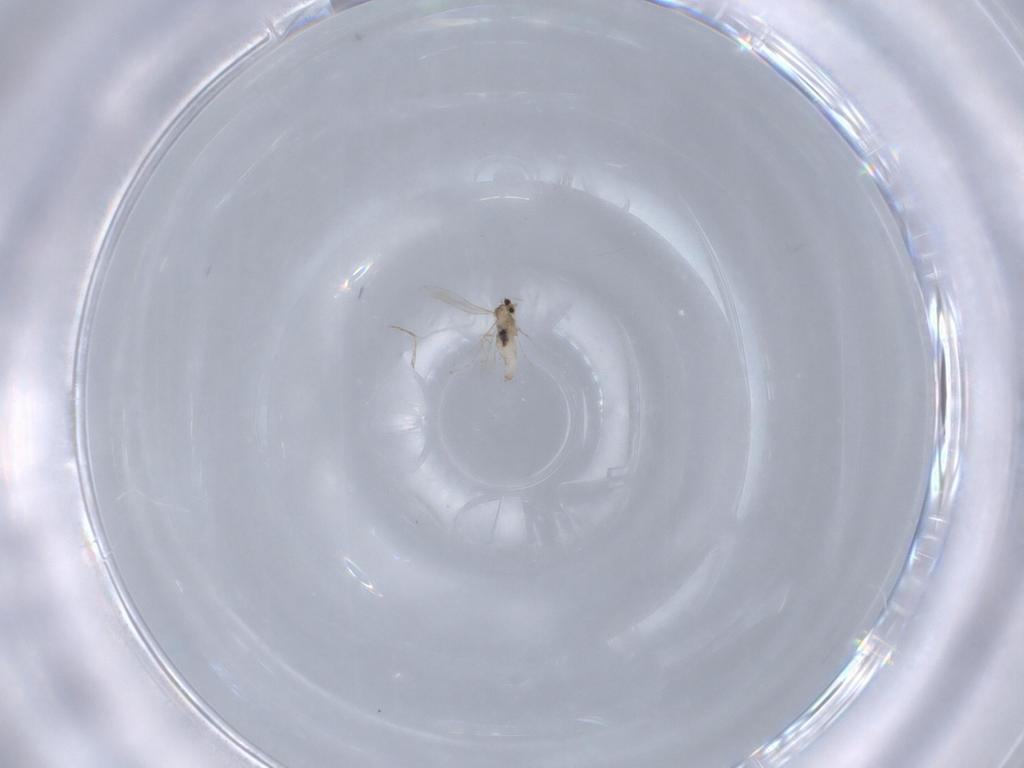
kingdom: Animalia
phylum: Arthropoda
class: Insecta
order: Diptera
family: Cecidomyiidae
